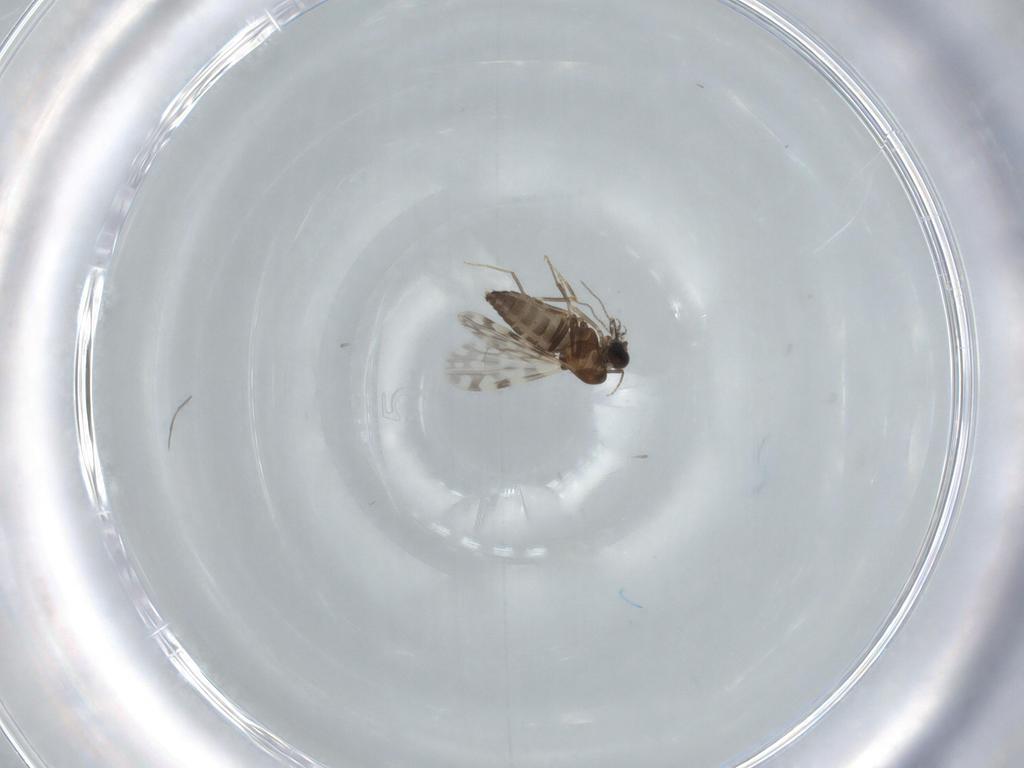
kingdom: Animalia
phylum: Arthropoda
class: Insecta
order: Diptera
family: Ceratopogonidae
